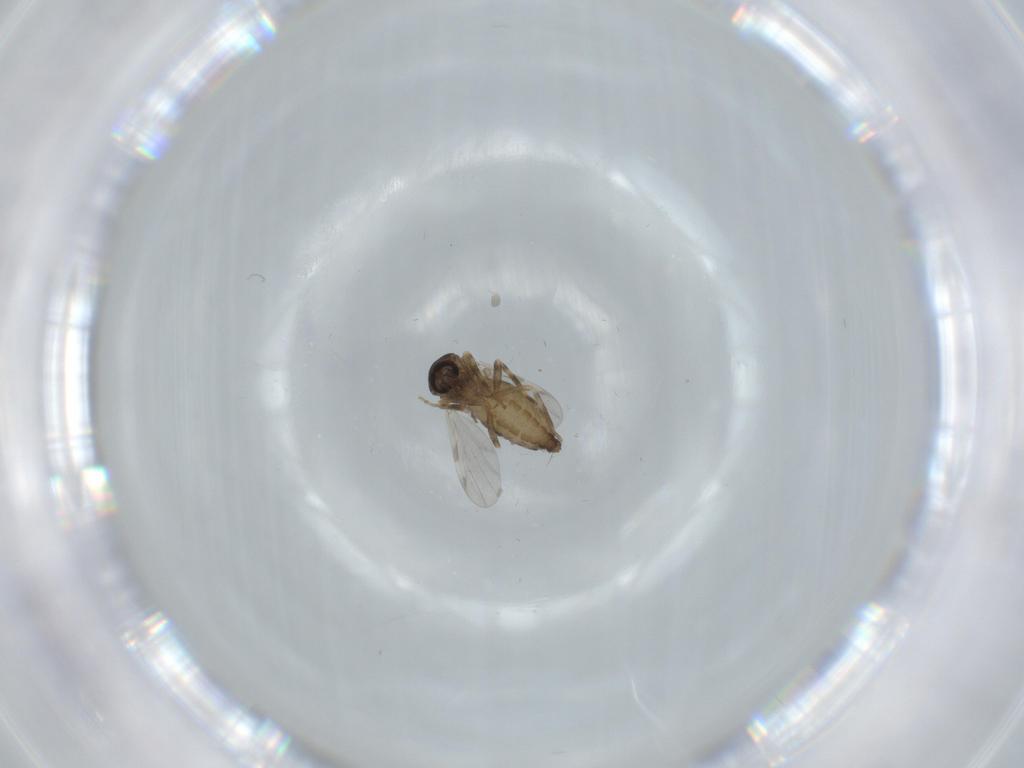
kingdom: Animalia
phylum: Arthropoda
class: Insecta
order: Diptera
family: Ceratopogonidae
